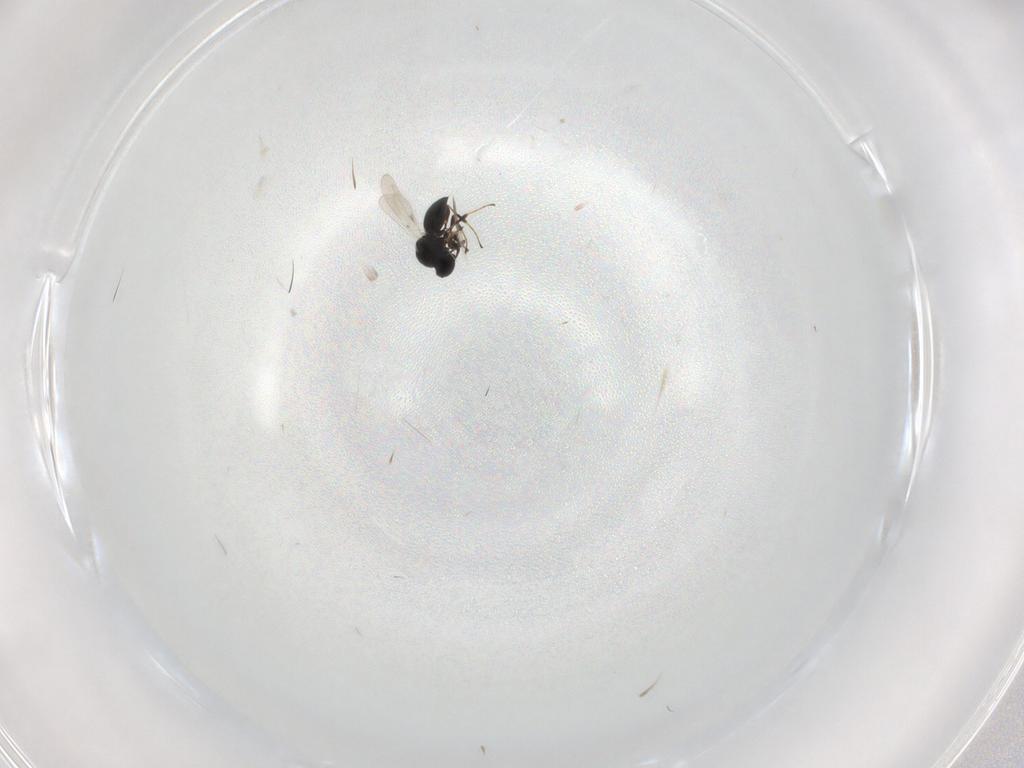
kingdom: Animalia
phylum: Arthropoda
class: Insecta
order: Hymenoptera
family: Platygastridae
